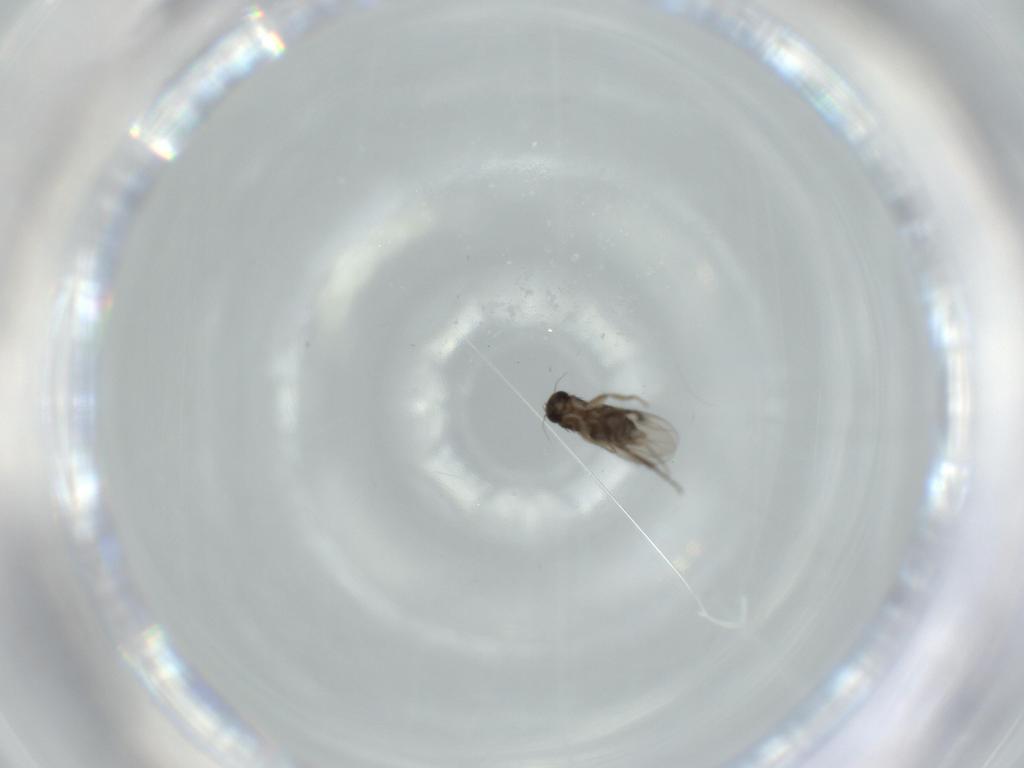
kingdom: Animalia
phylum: Arthropoda
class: Insecta
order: Diptera
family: Phoridae
